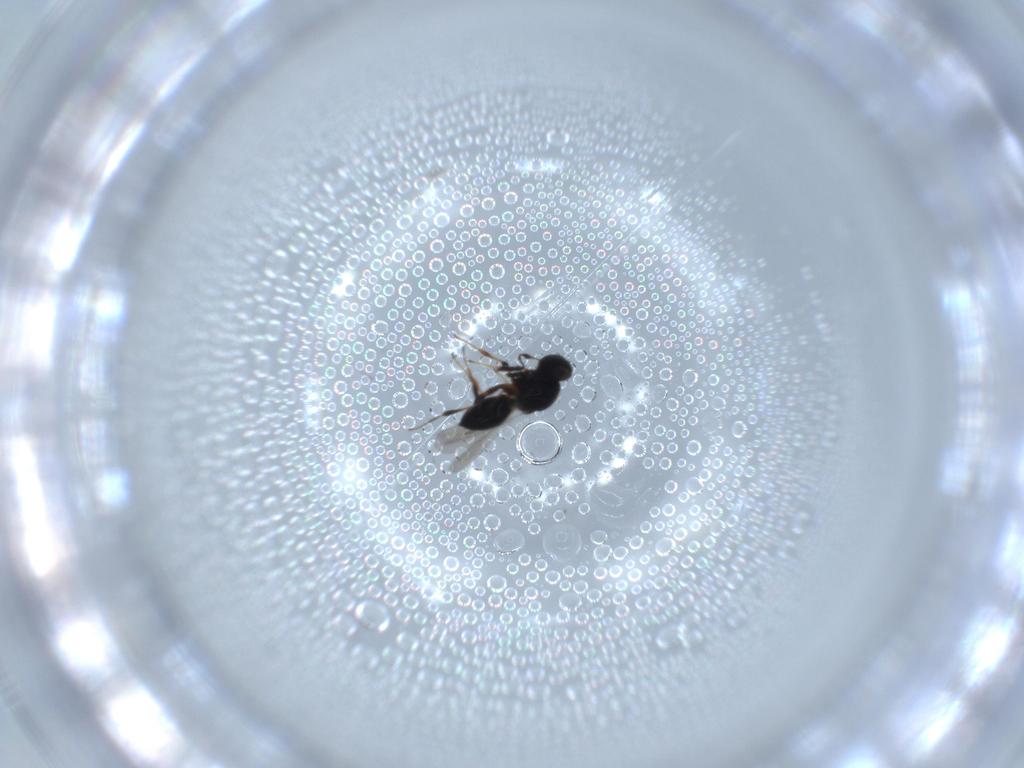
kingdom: Animalia
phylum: Arthropoda
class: Insecta
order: Hymenoptera
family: Platygastridae
